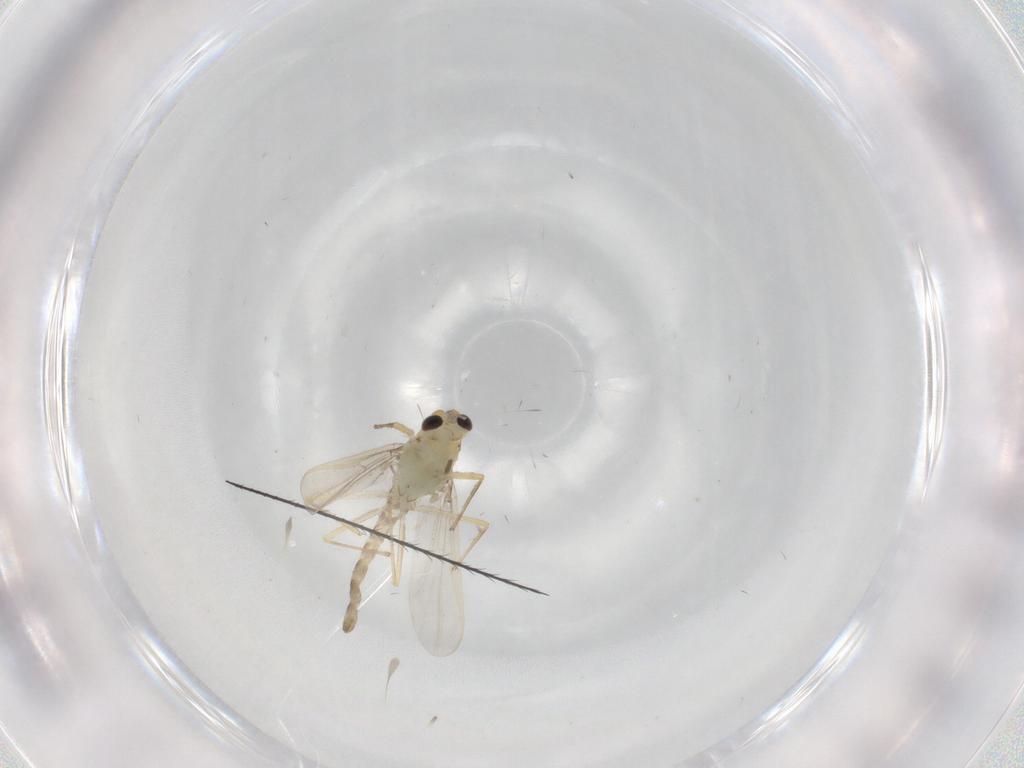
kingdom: Animalia
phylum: Arthropoda
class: Insecta
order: Diptera
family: Chironomidae
